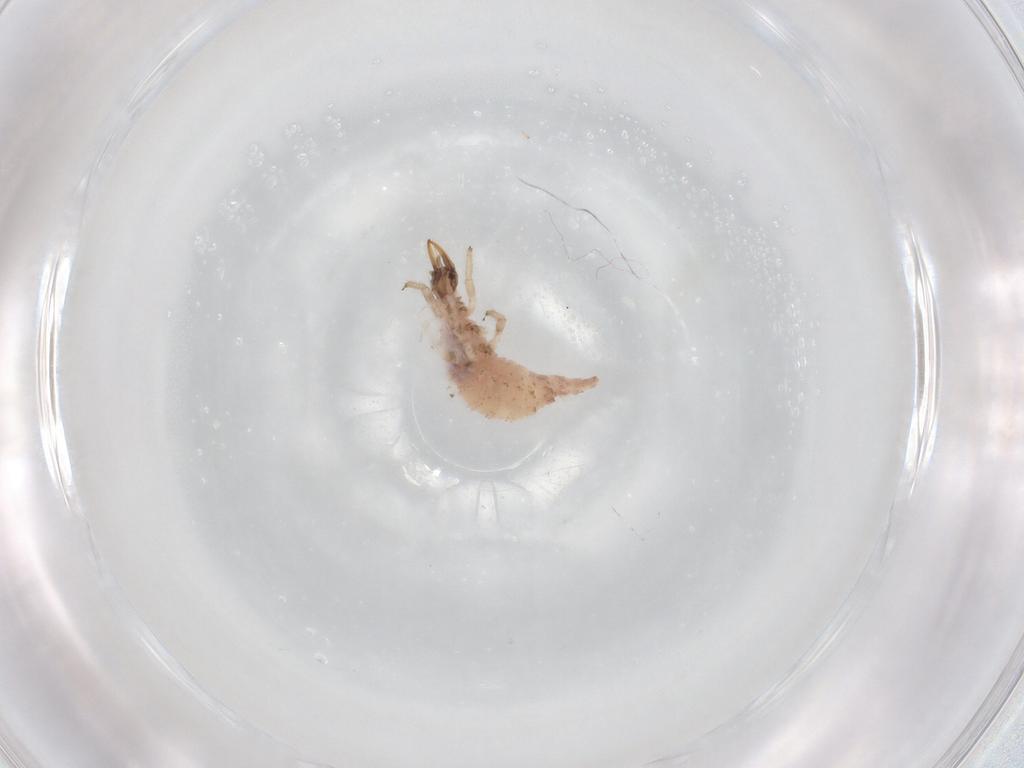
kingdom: Animalia
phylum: Arthropoda
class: Insecta
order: Neuroptera
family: Chrysopidae
